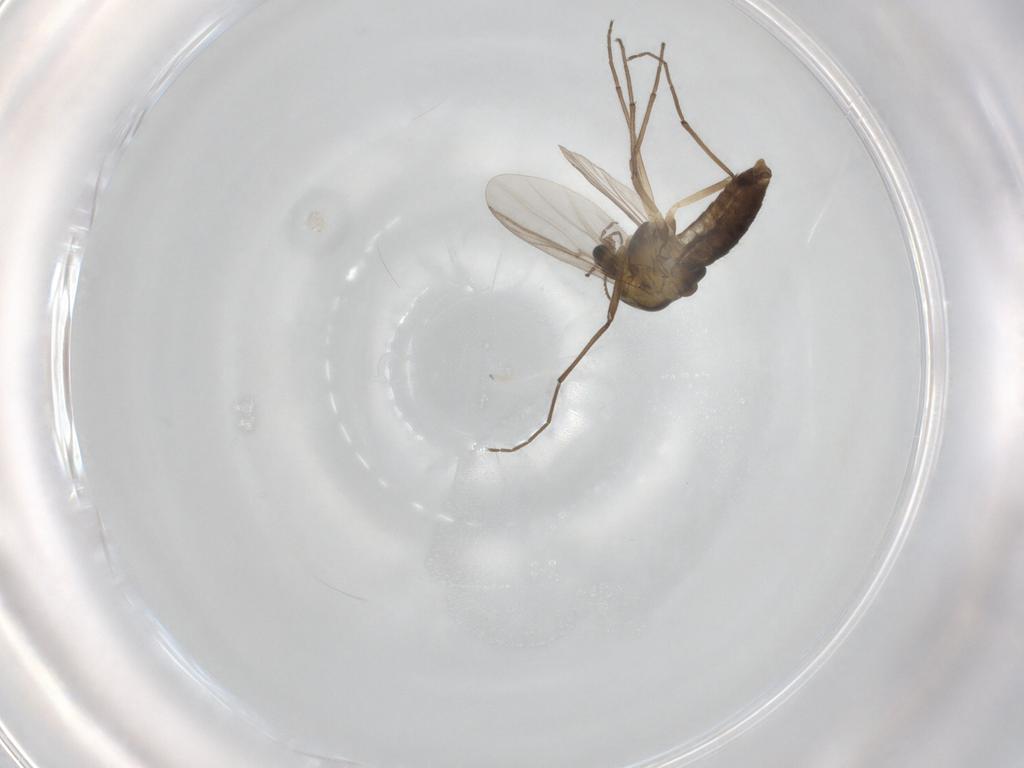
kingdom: Animalia
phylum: Arthropoda
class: Insecta
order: Diptera
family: Chironomidae
